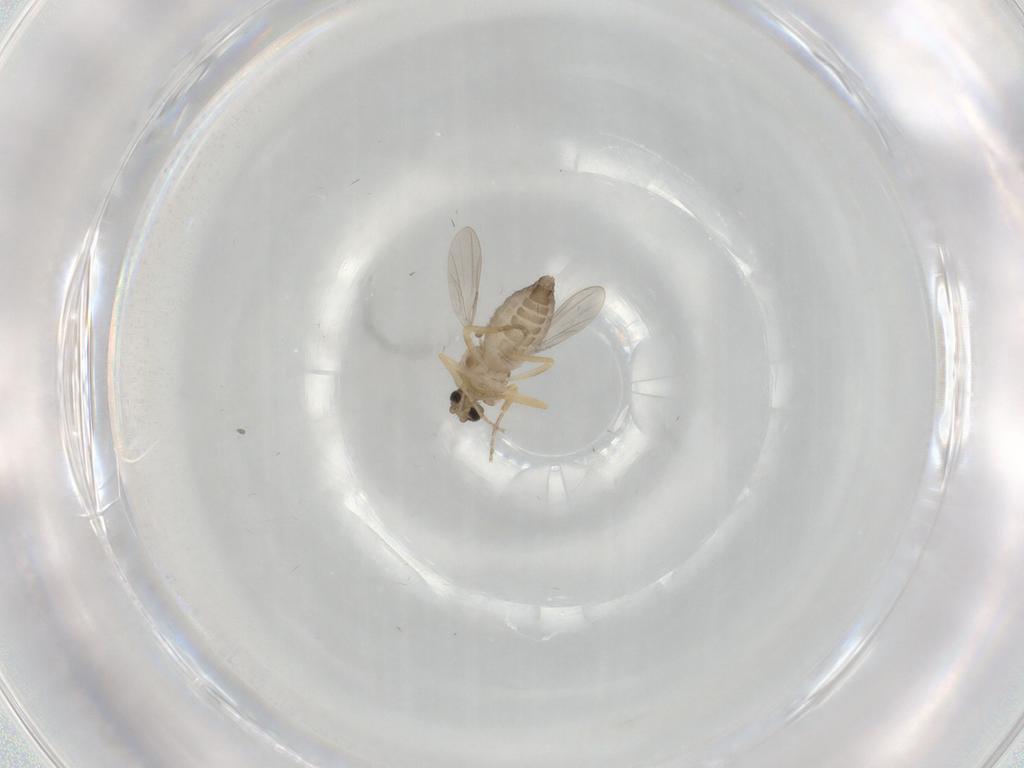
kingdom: Animalia
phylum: Arthropoda
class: Insecta
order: Diptera
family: Ceratopogonidae
